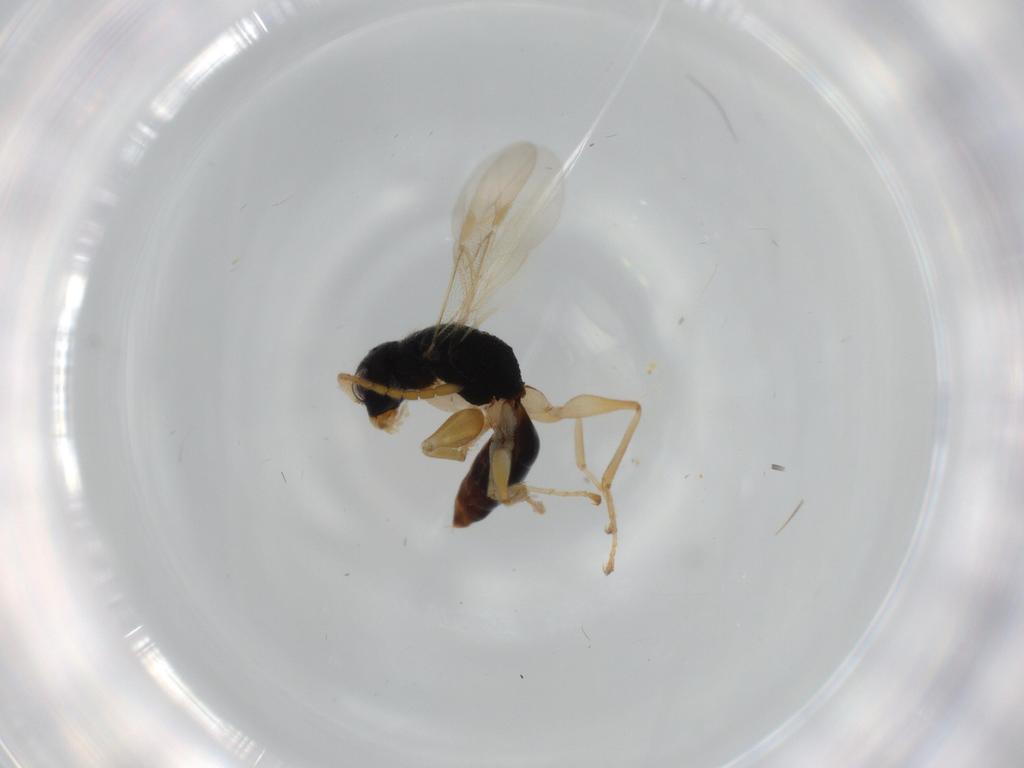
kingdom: Animalia
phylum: Arthropoda
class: Insecta
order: Hymenoptera
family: Dryinidae
